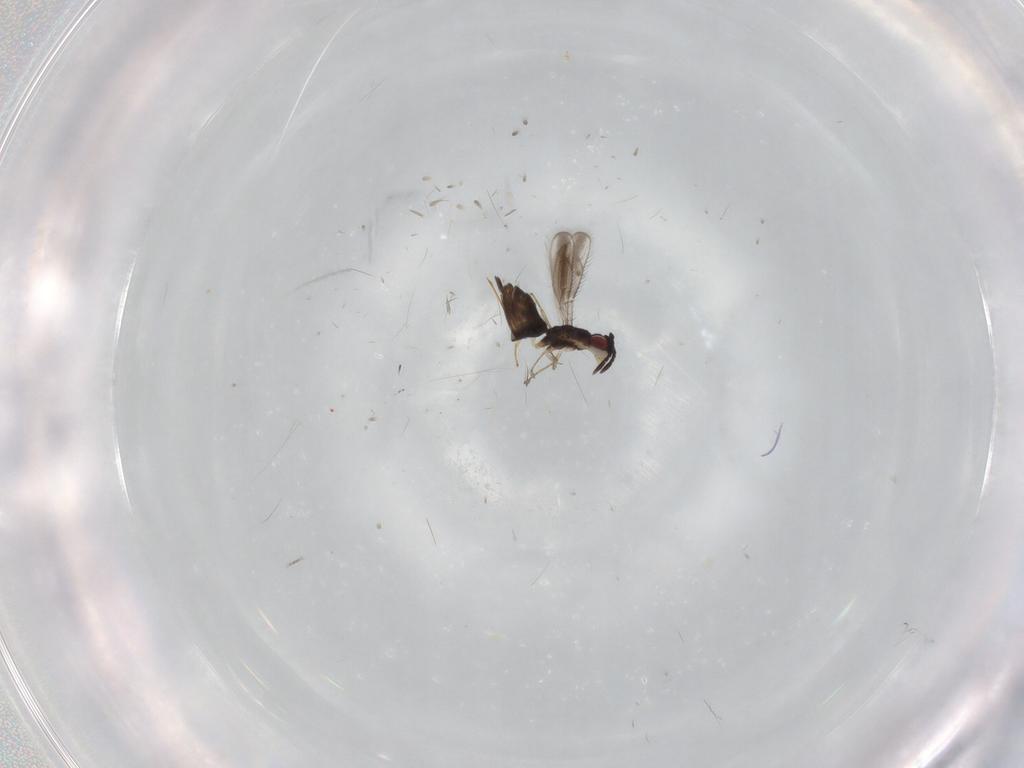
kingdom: Animalia
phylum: Arthropoda
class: Insecta
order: Hymenoptera
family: Pteromalidae
